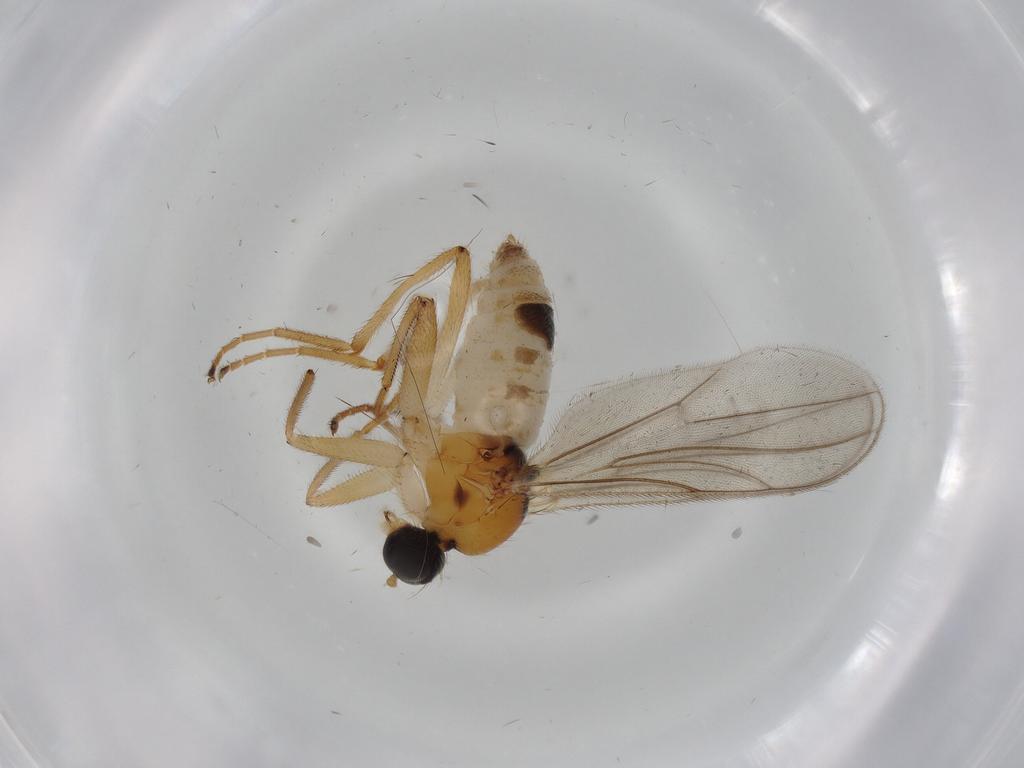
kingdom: Animalia
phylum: Arthropoda
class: Insecta
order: Diptera
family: Hybotidae
